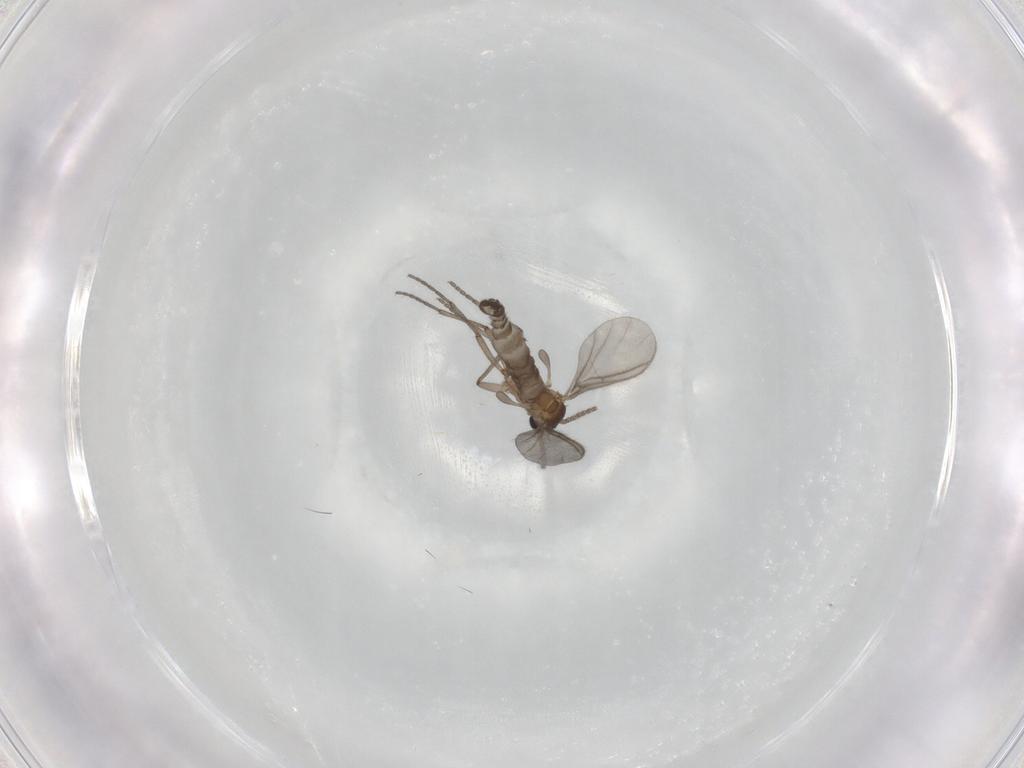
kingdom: Animalia
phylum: Arthropoda
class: Insecta
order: Diptera
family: Sciaridae
